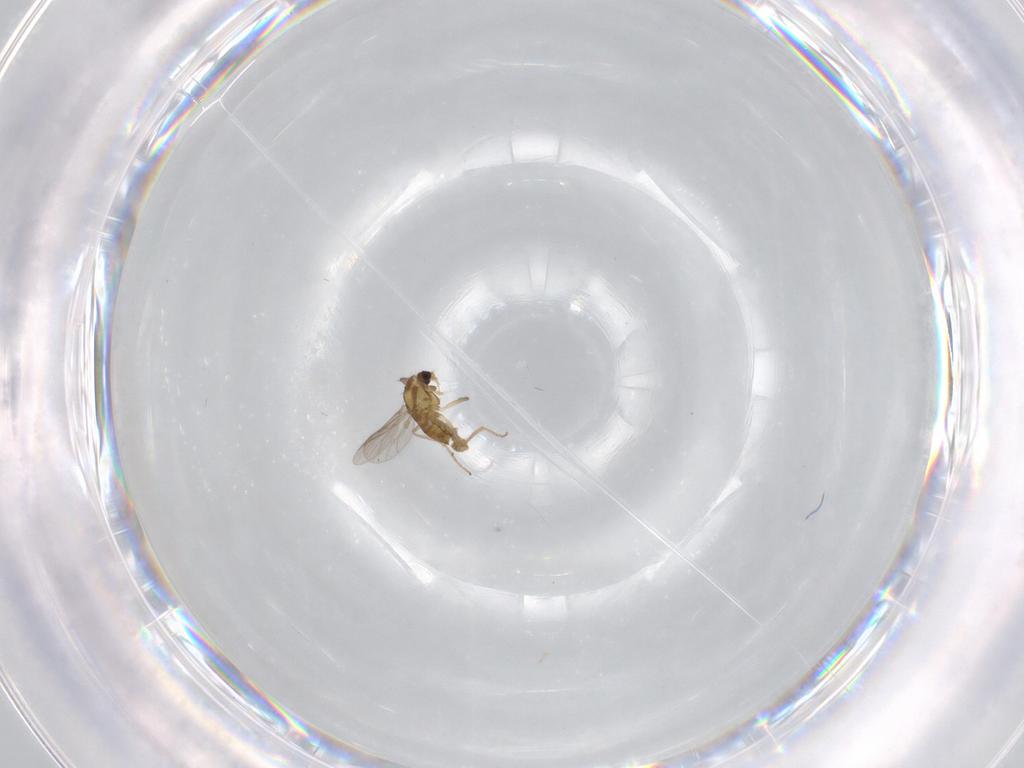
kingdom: Animalia
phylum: Arthropoda
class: Insecta
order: Diptera
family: Chironomidae
